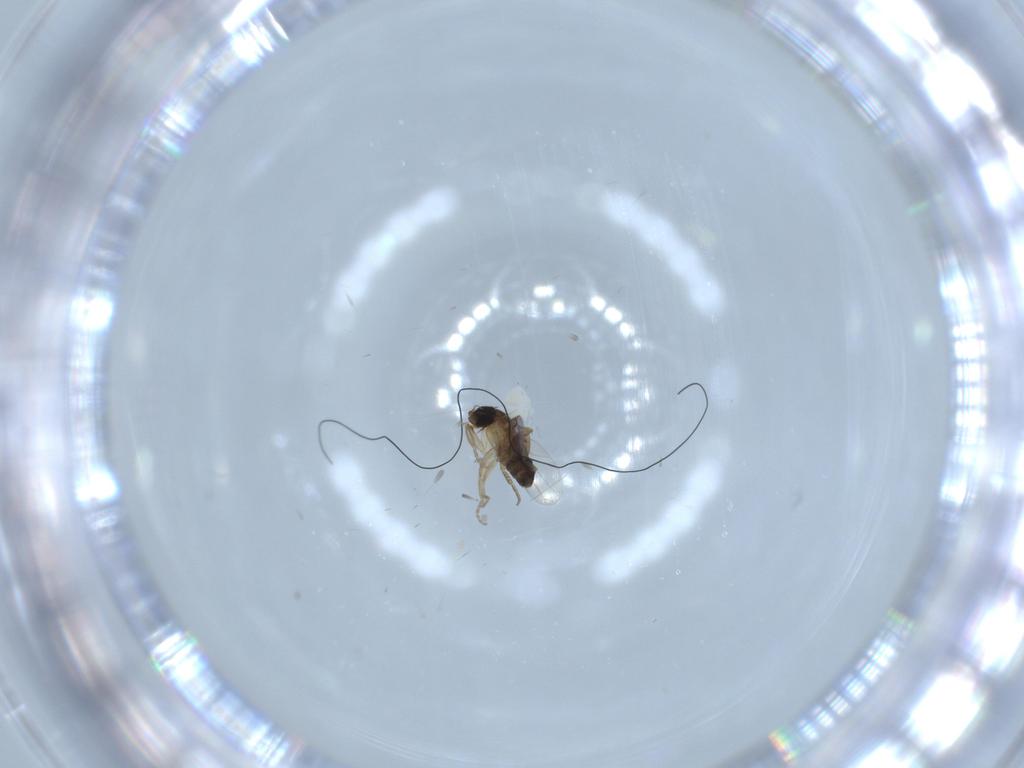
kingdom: Animalia
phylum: Arthropoda
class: Insecta
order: Diptera
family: Phoridae
